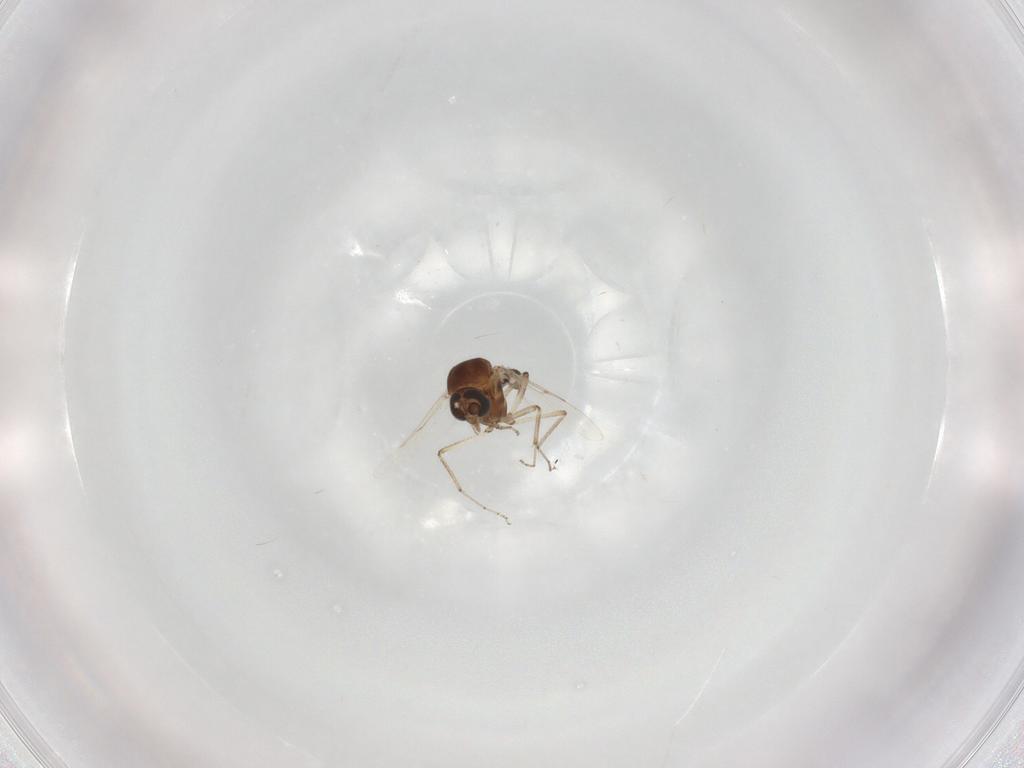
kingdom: Animalia
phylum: Arthropoda
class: Insecta
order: Diptera
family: Ceratopogonidae
